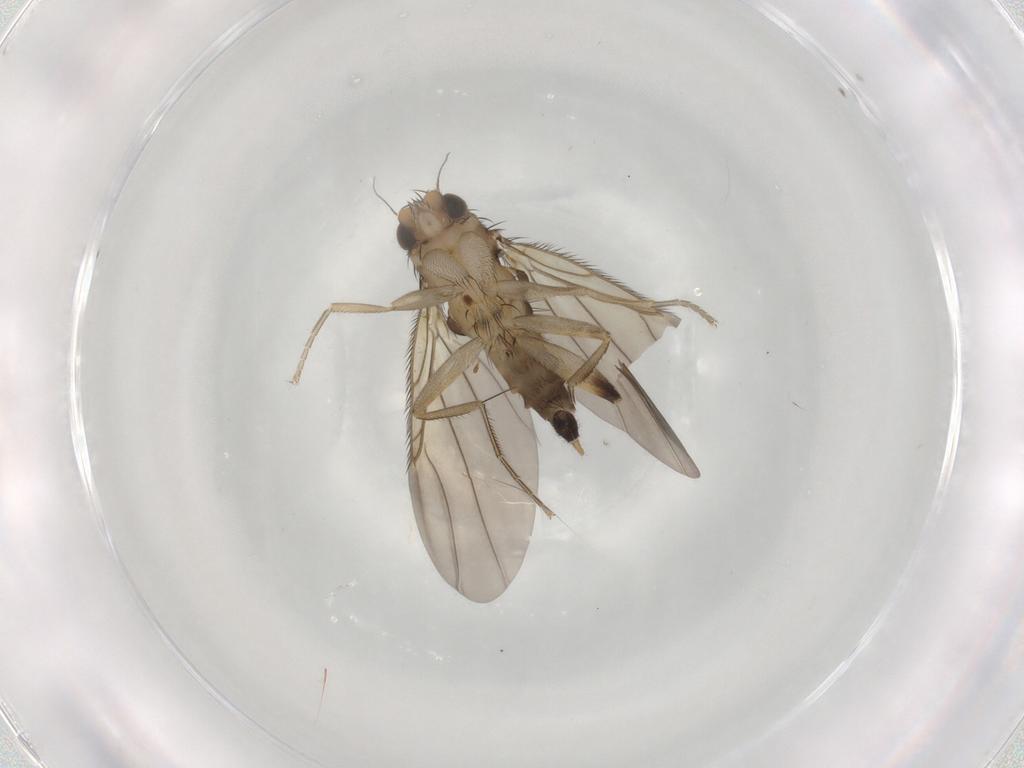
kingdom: Animalia
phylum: Arthropoda
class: Insecta
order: Diptera
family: Phoridae
